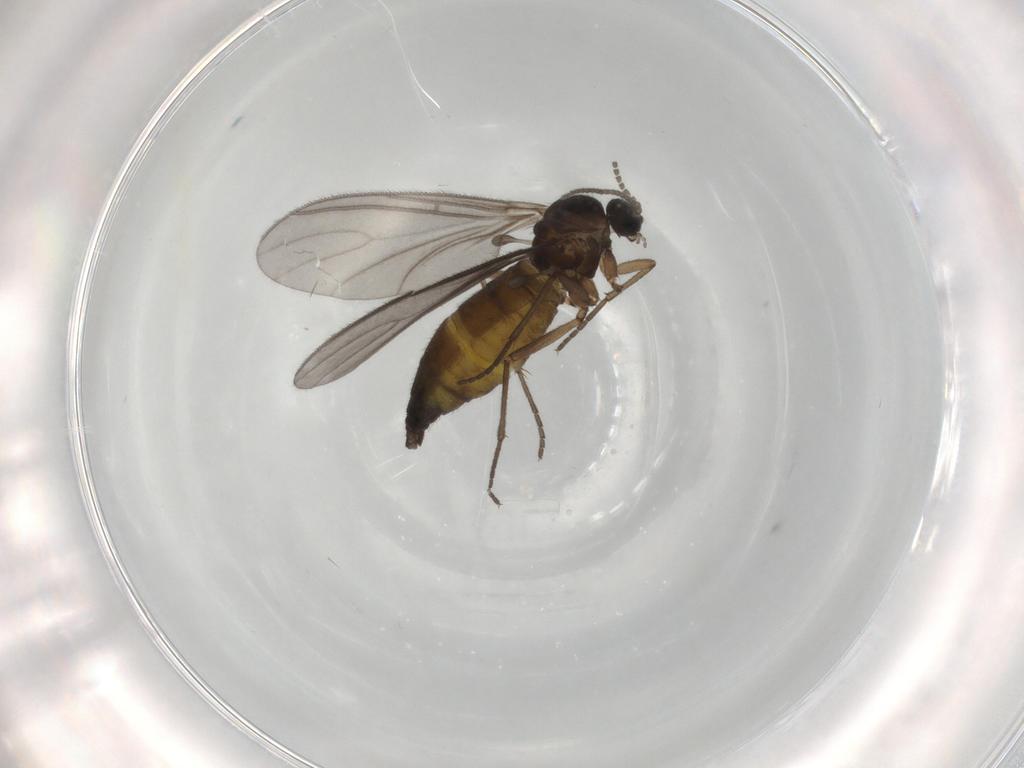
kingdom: Animalia
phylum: Arthropoda
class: Insecta
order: Diptera
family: Sciaridae
